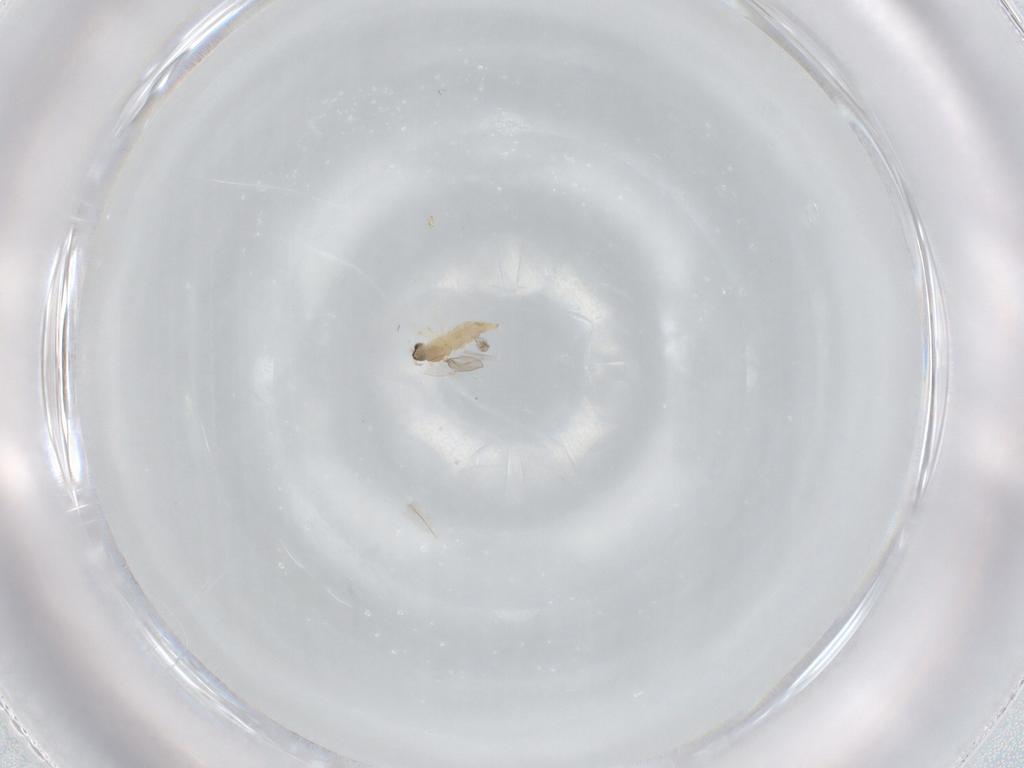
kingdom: Animalia
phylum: Arthropoda
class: Insecta
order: Diptera
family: Cecidomyiidae
